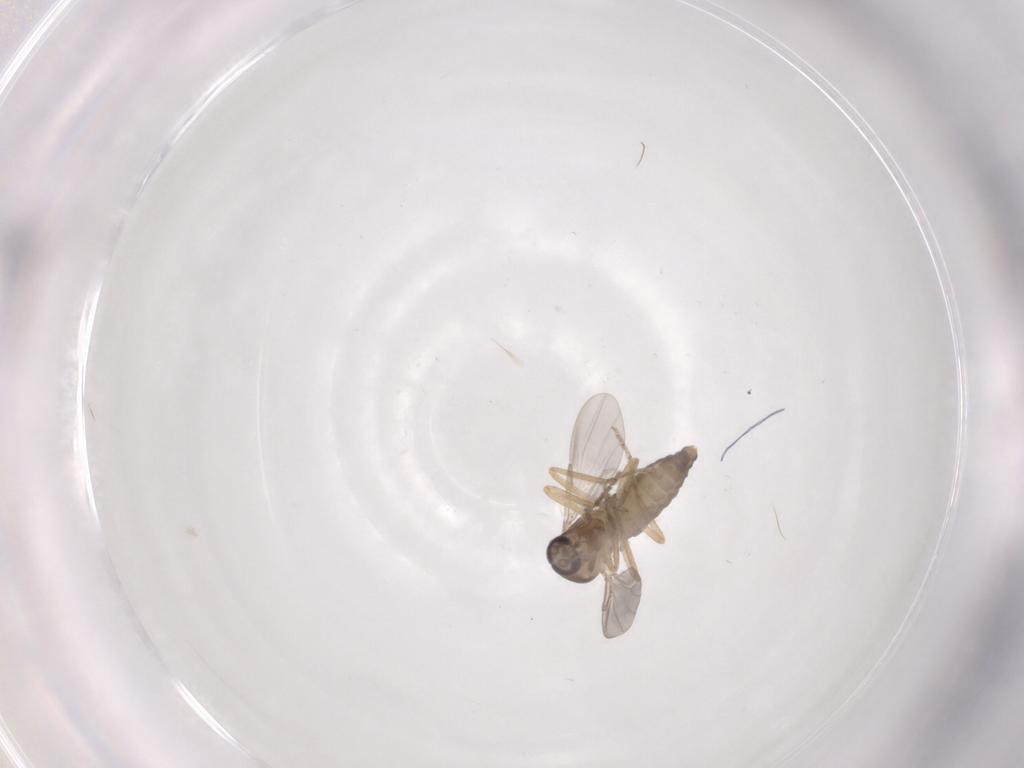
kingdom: Animalia
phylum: Arthropoda
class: Insecta
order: Diptera
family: Ceratopogonidae
